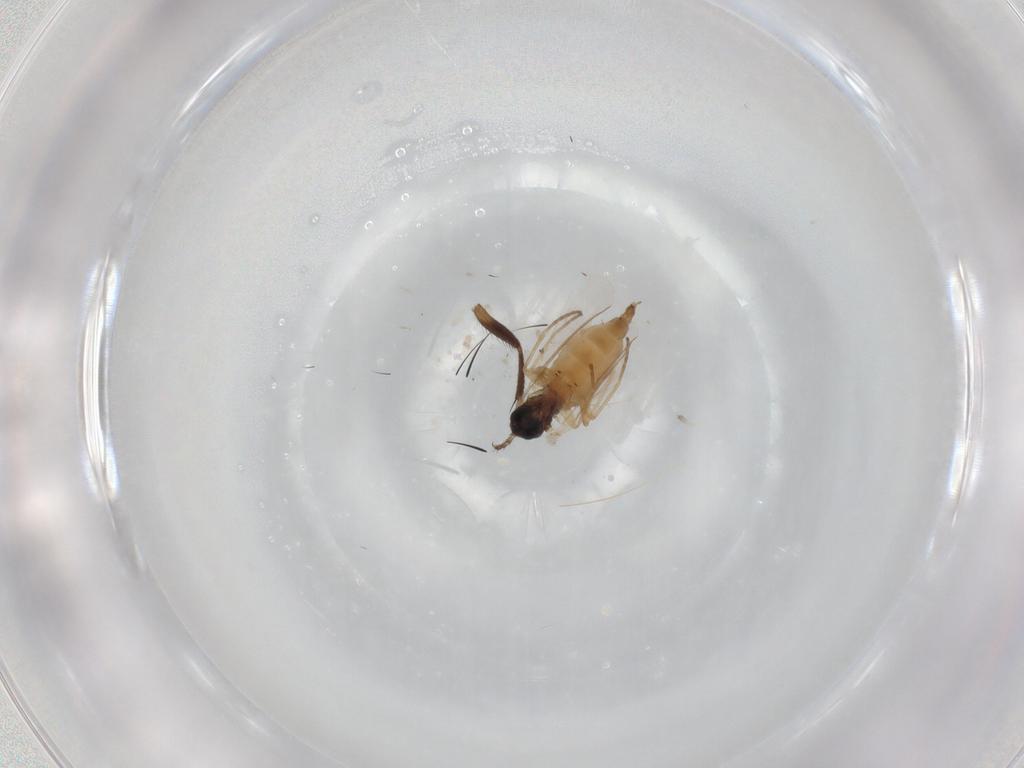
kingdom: Animalia
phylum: Arthropoda
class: Insecta
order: Diptera
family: Sciaridae
